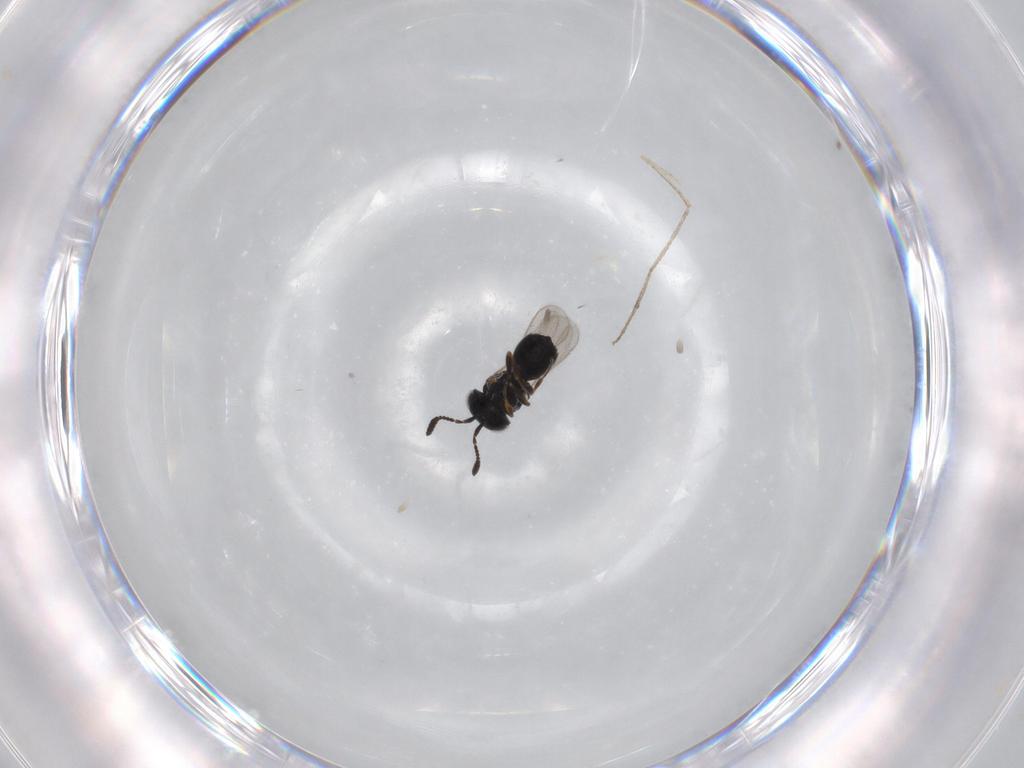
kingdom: Animalia
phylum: Arthropoda
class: Insecta
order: Hymenoptera
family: Scelionidae
